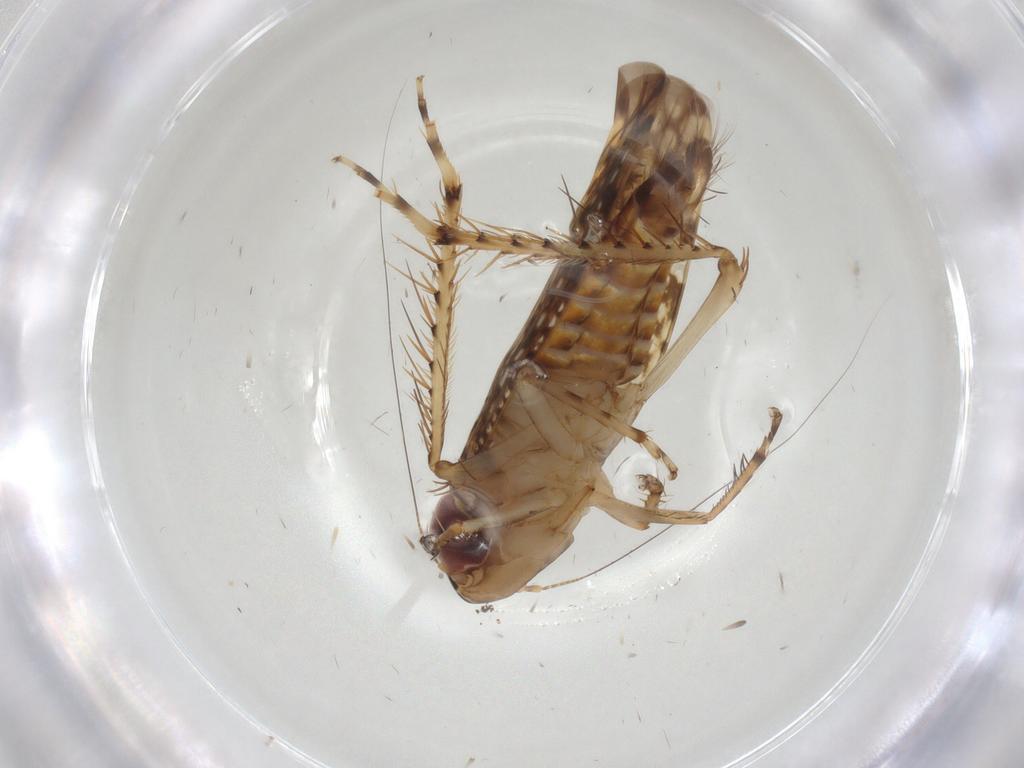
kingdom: Animalia
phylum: Arthropoda
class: Insecta
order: Hemiptera
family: Cicadellidae
